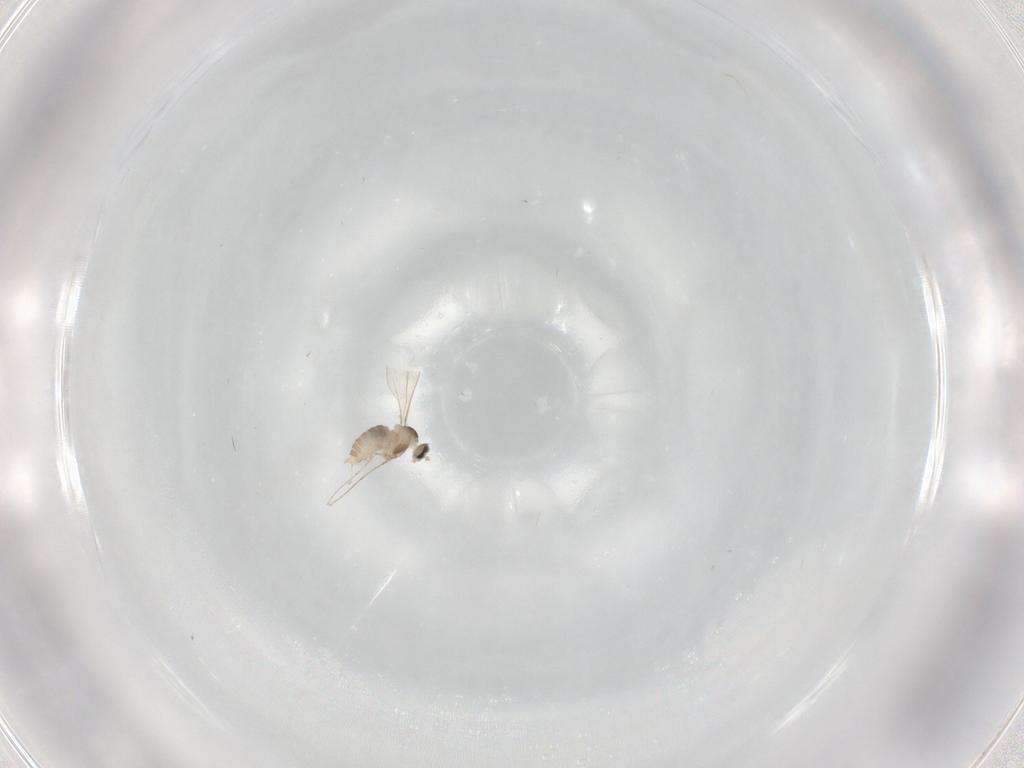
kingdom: Animalia
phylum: Arthropoda
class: Insecta
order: Diptera
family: Cecidomyiidae
